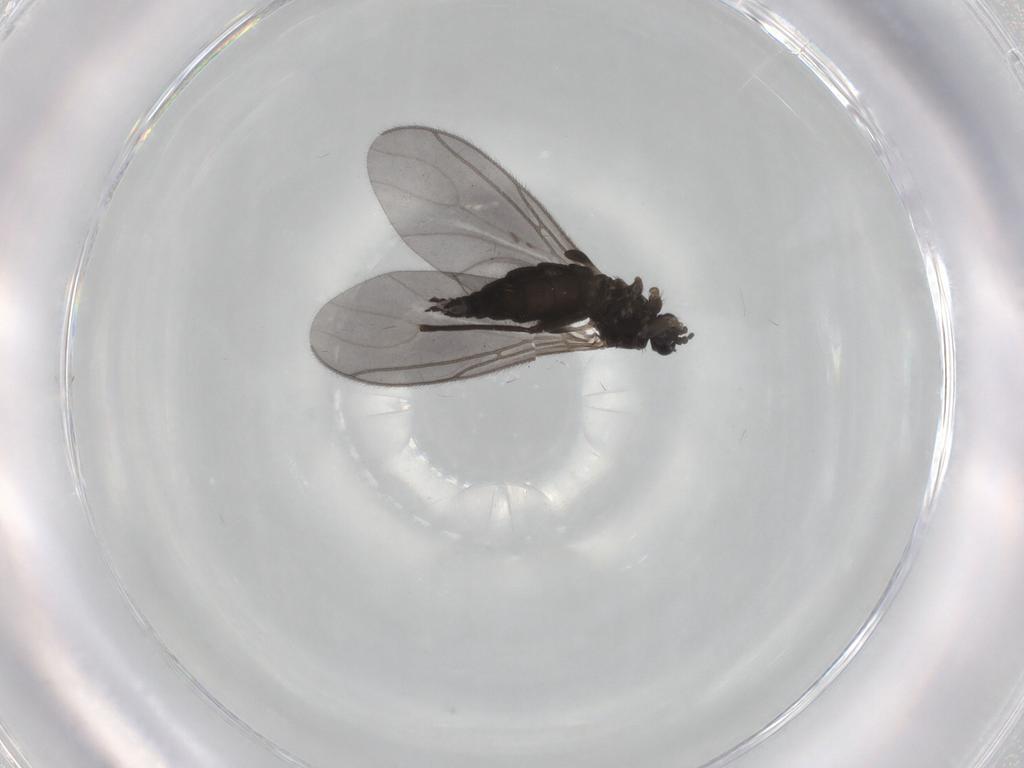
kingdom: Animalia
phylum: Arthropoda
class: Insecta
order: Diptera
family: Sciaridae
